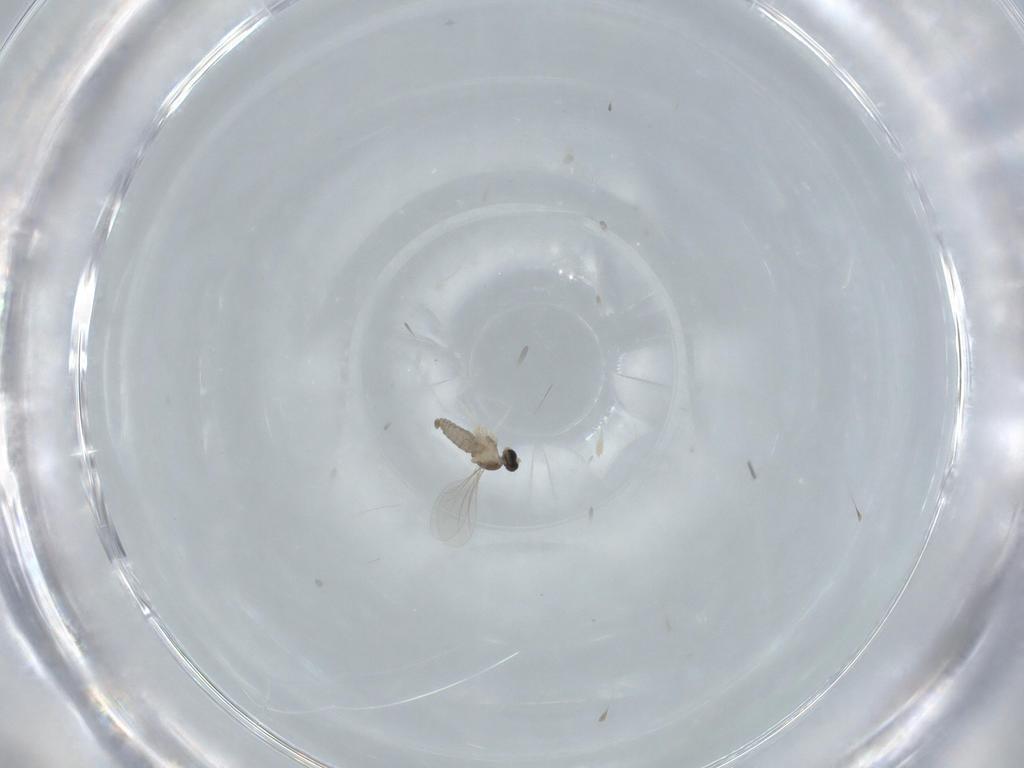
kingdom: Animalia
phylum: Arthropoda
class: Insecta
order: Diptera
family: Cecidomyiidae
